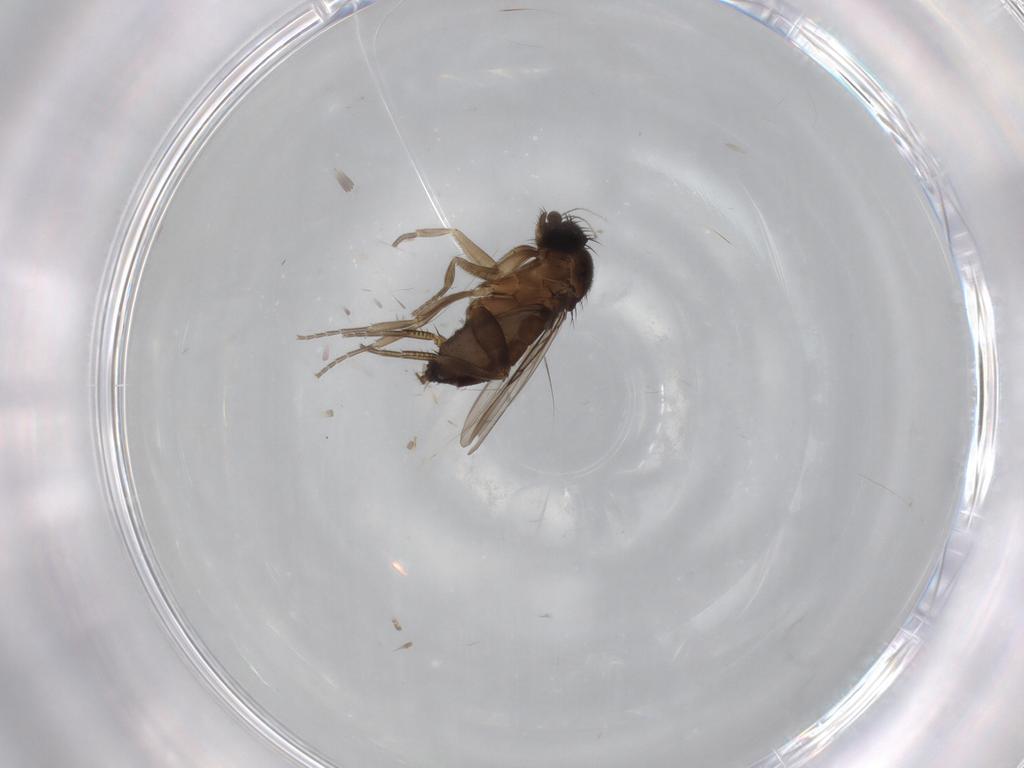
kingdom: Animalia
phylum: Arthropoda
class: Insecta
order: Diptera
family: Phoridae
